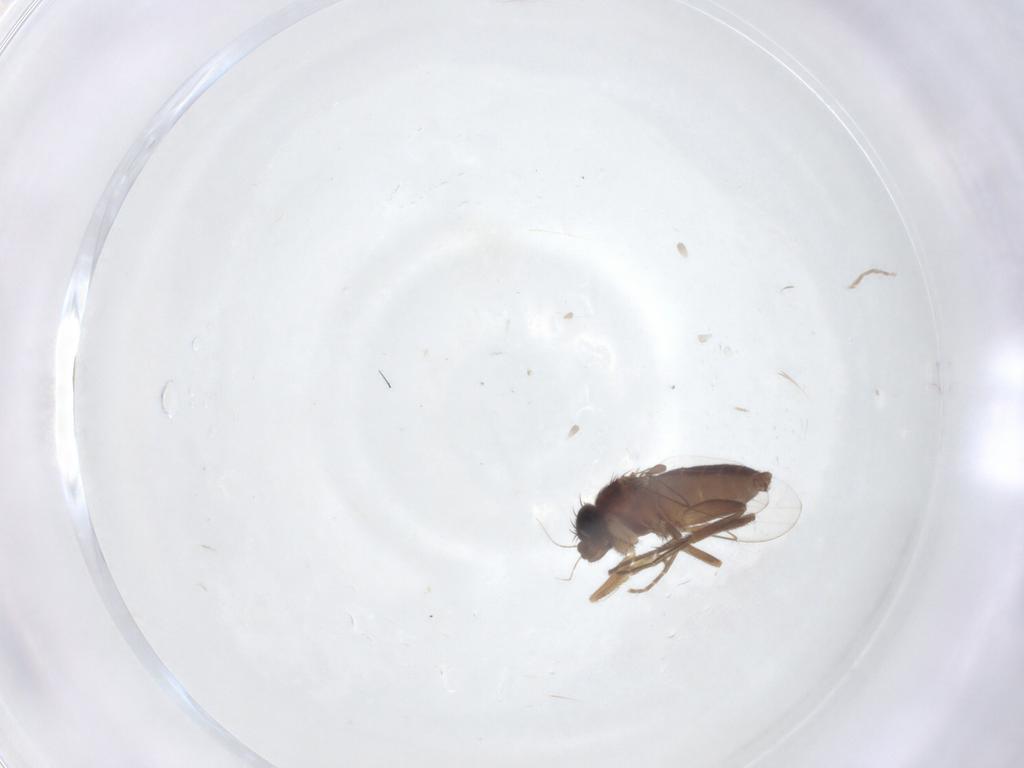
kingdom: Animalia
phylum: Arthropoda
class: Insecta
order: Diptera
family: Phoridae
